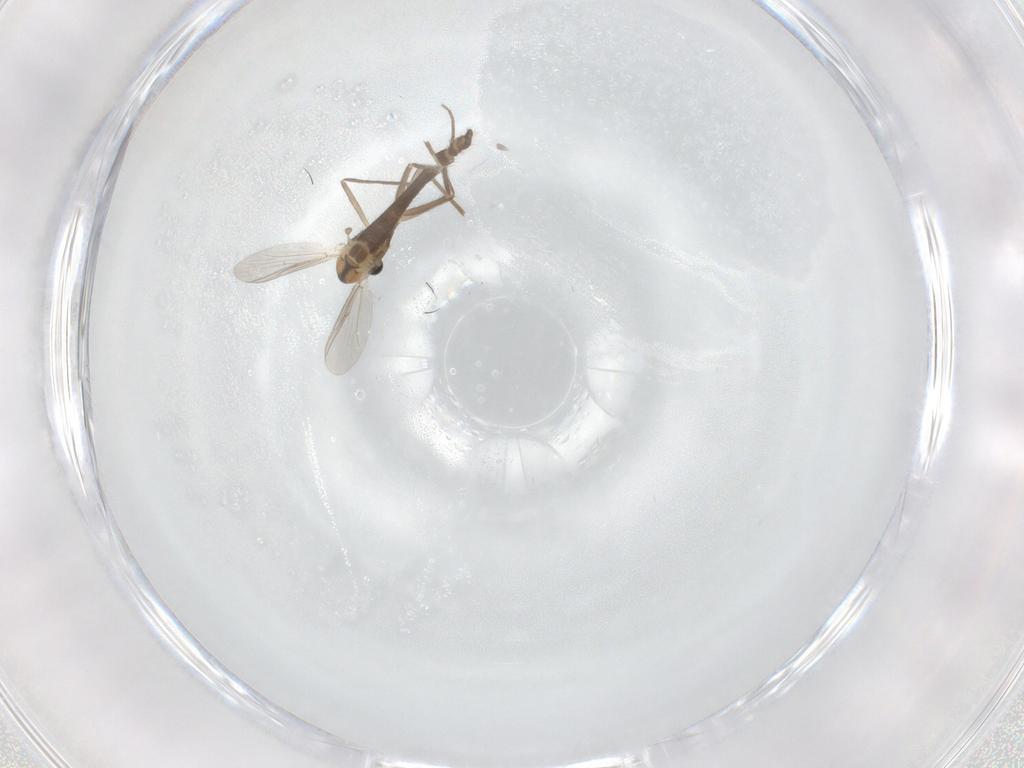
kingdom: Animalia
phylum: Arthropoda
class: Insecta
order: Diptera
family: Chironomidae
